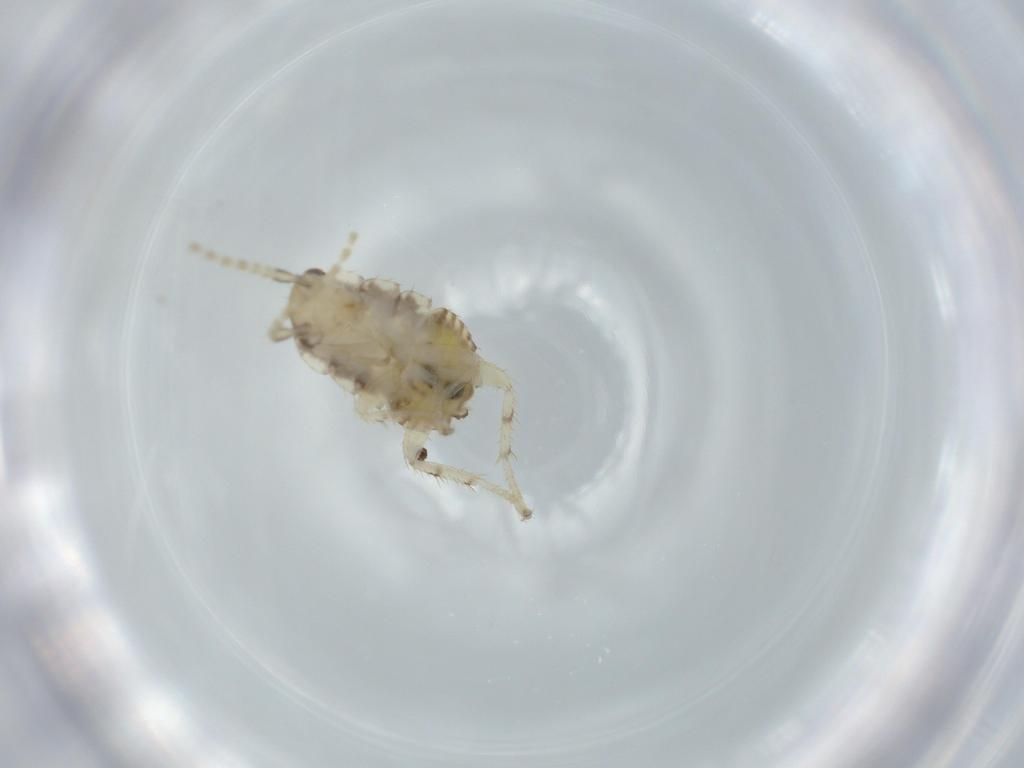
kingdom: Animalia
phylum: Arthropoda
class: Insecta
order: Blattodea
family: Ectobiidae
